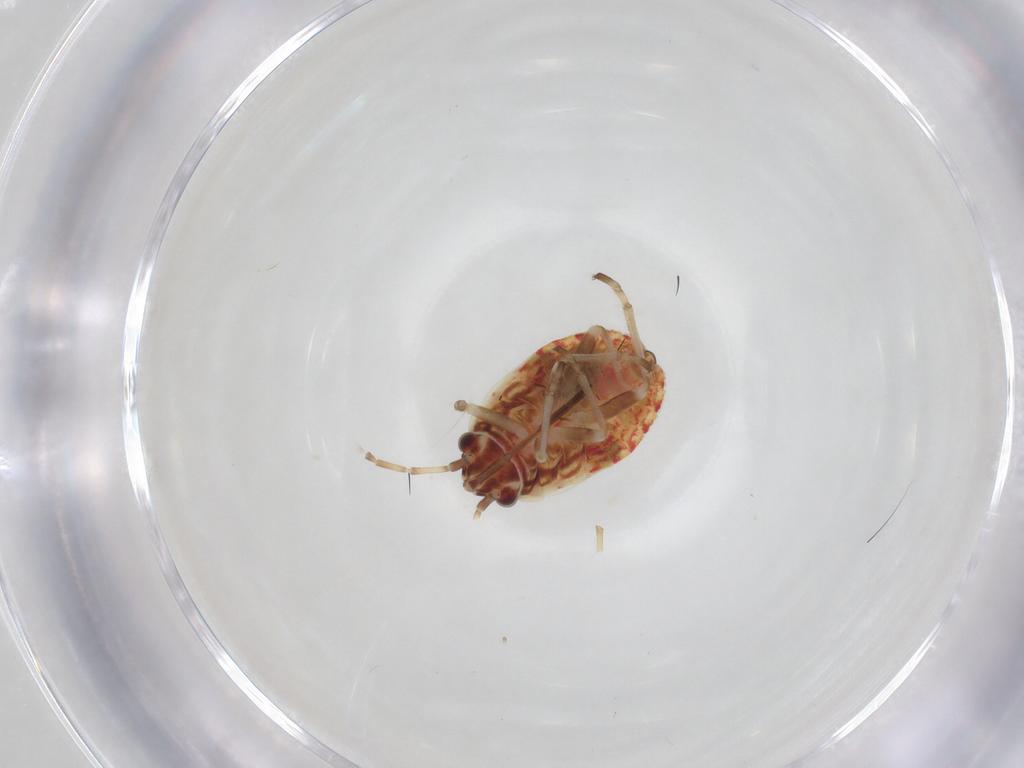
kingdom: Animalia
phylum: Arthropoda
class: Insecta
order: Hemiptera
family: Lygaeidae
